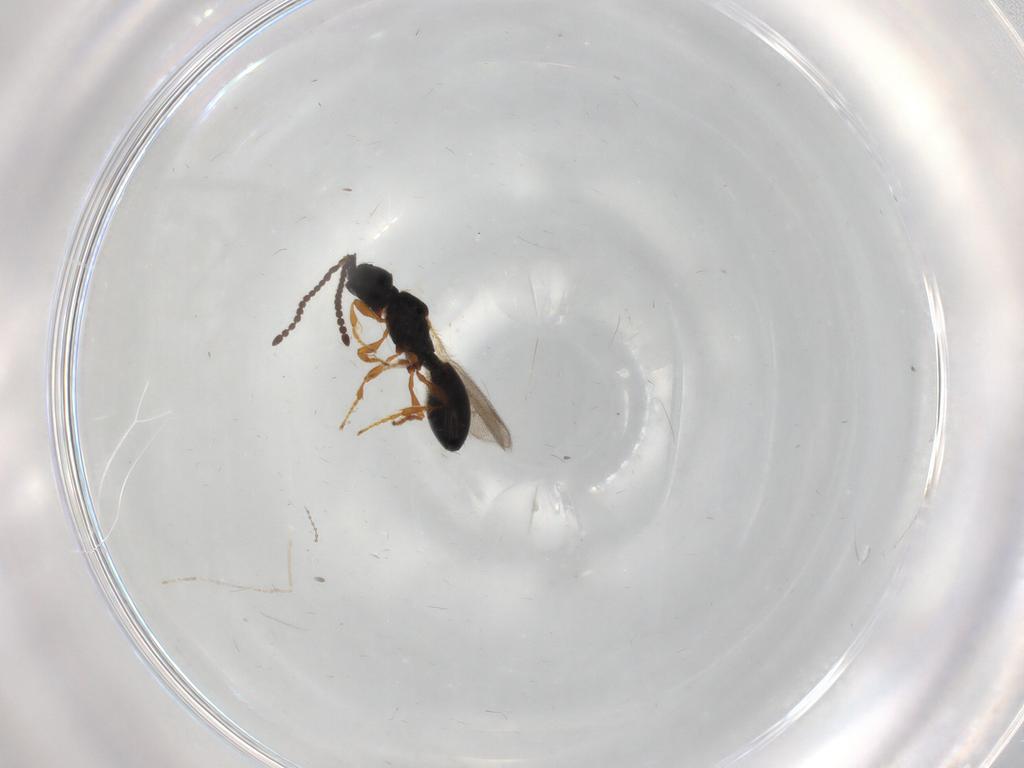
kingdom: Animalia
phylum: Arthropoda
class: Insecta
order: Hymenoptera
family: Diapriidae
